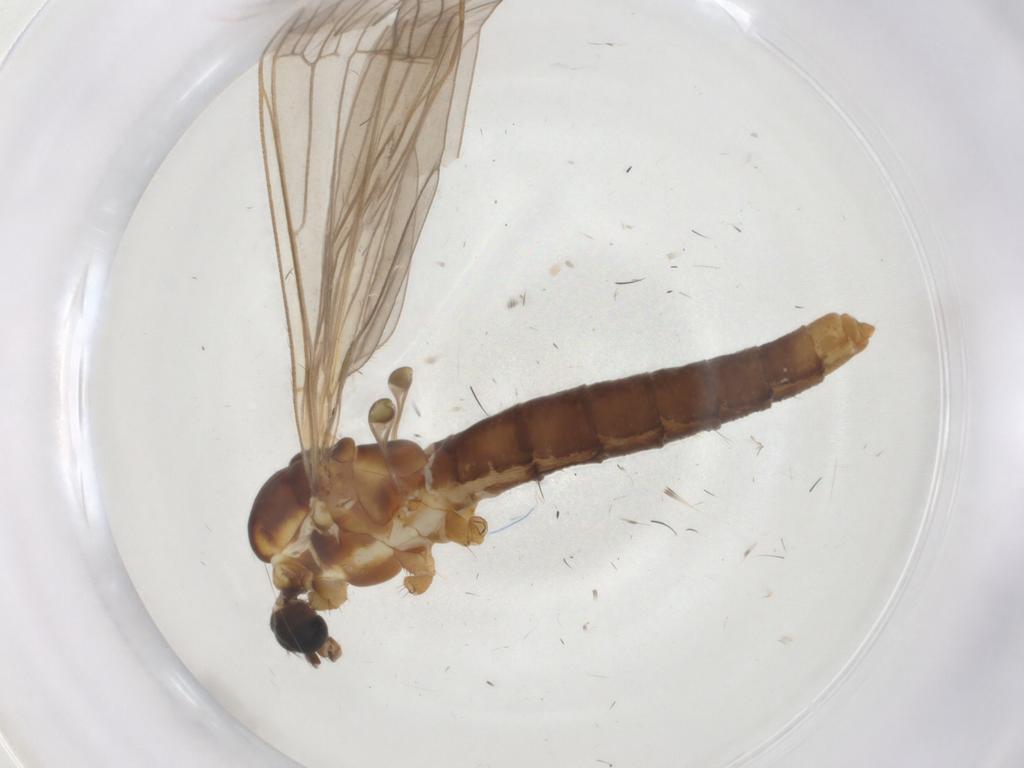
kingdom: Animalia
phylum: Arthropoda
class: Insecta
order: Diptera
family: Limoniidae
